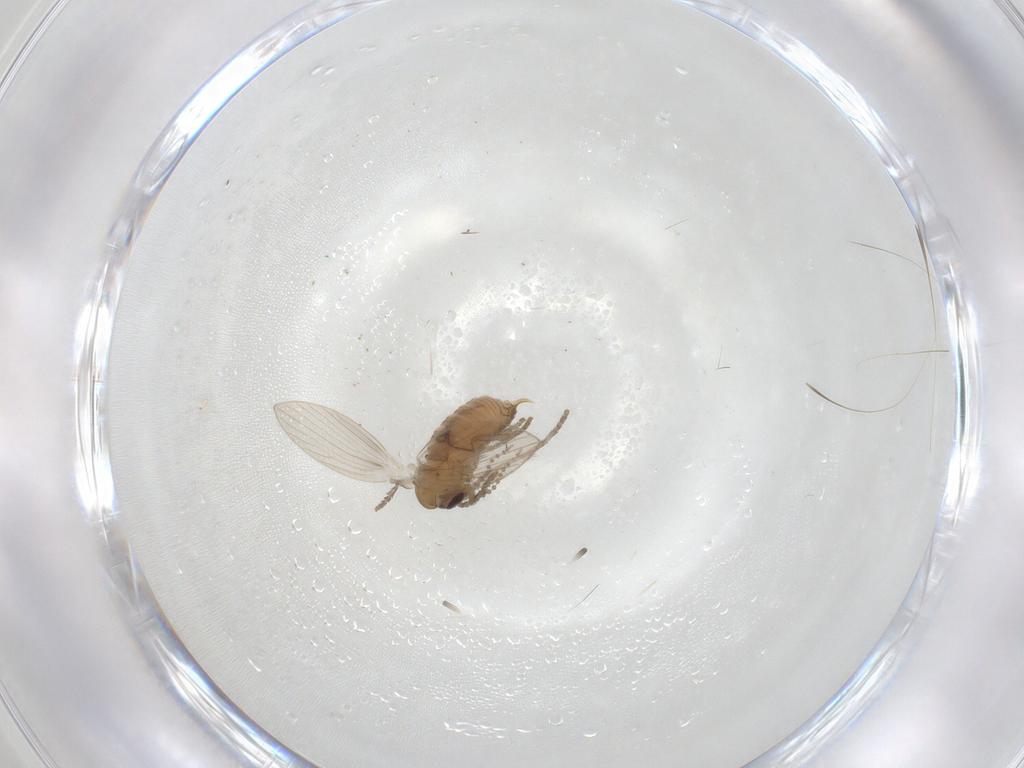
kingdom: Animalia
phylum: Arthropoda
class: Insecta
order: Diptera
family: Psychodidae
